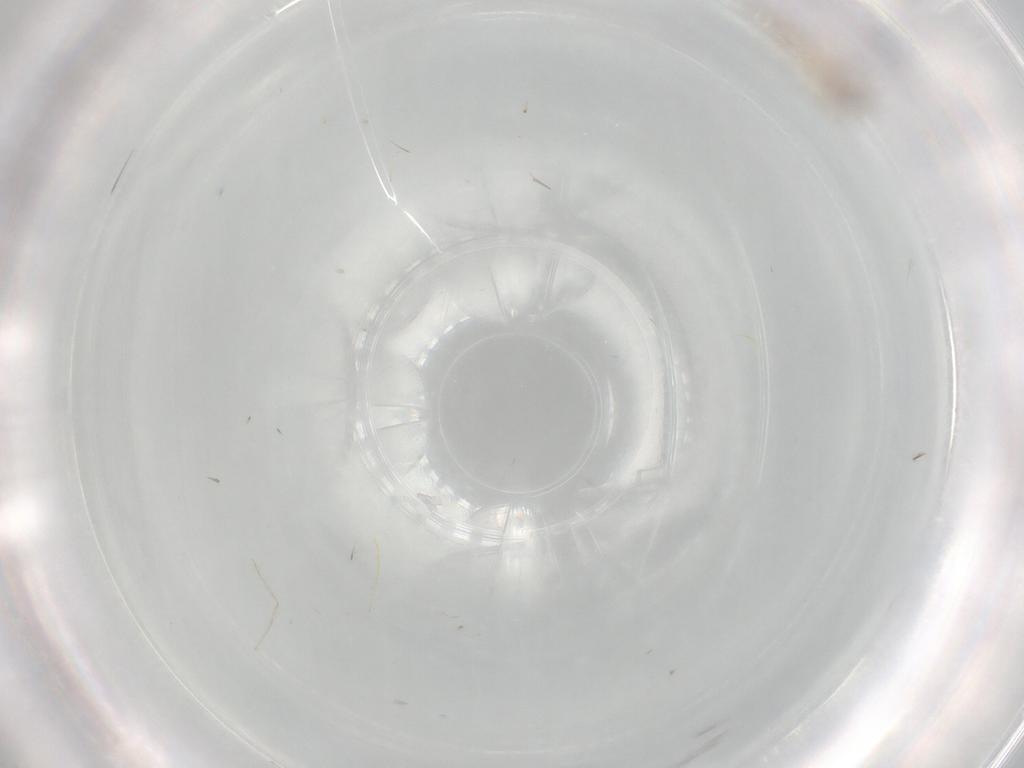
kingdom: Animalia
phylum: Arthropoda
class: Insecta
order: Diptera
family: Cecidomyiidae
